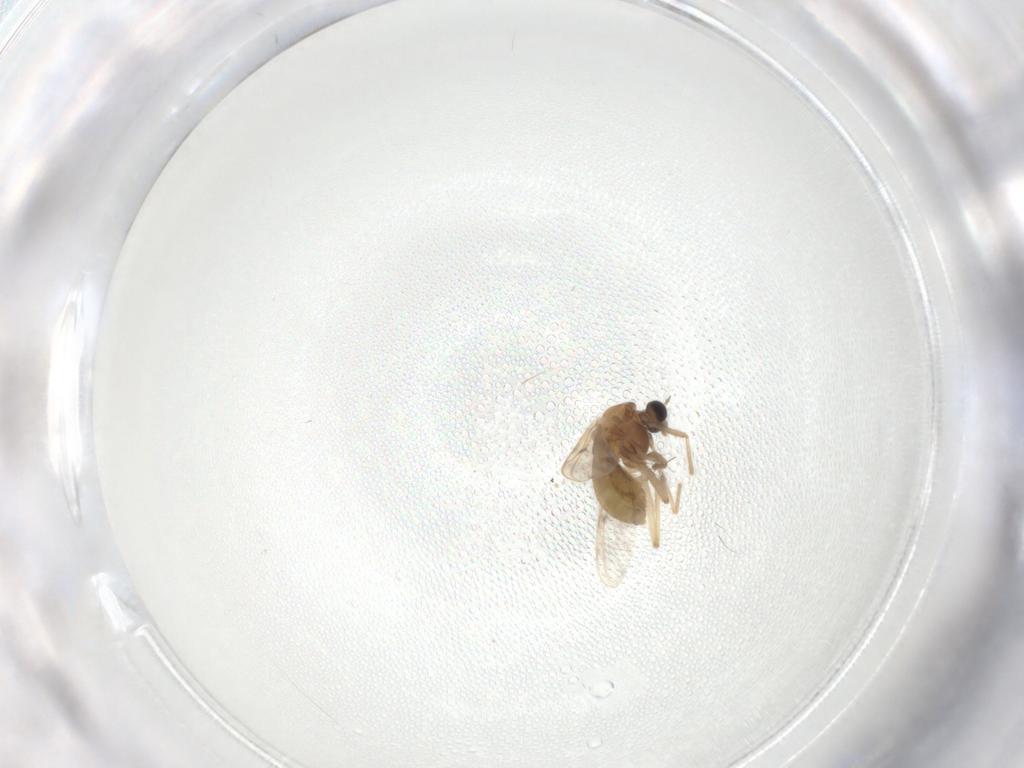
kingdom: Animalia
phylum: Arthropoda
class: Insecta
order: Diptera
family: Chironomidae
